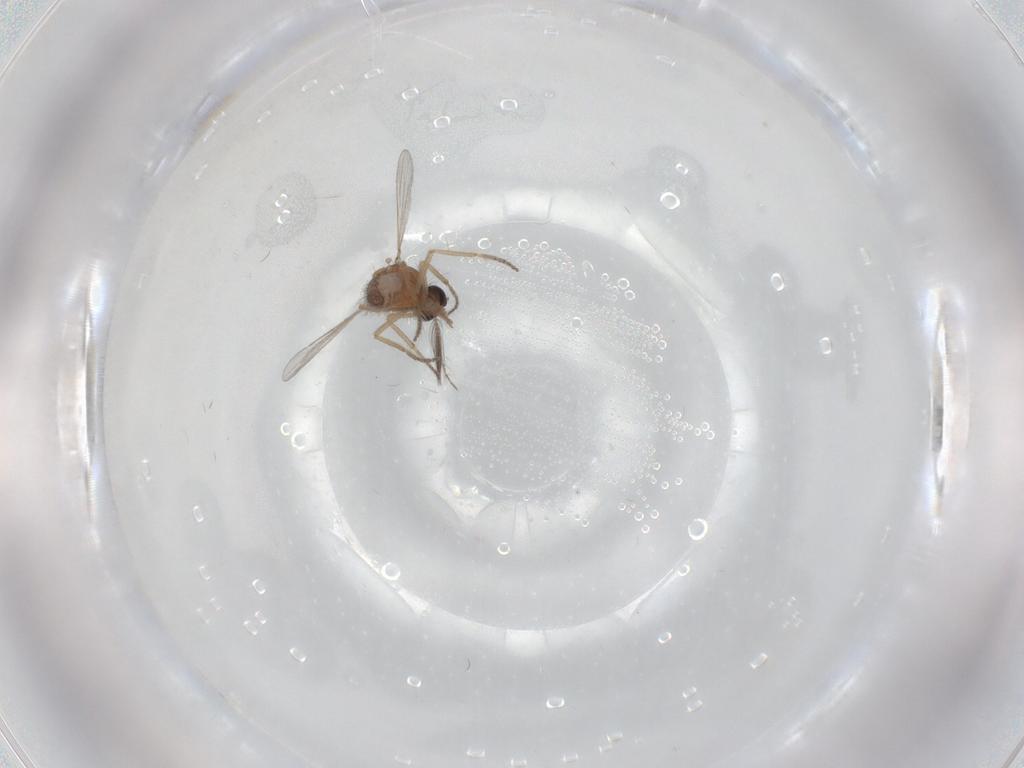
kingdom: Animalia
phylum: Arthropoda
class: Insecta
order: Diptera
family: Ceratopogonidae
